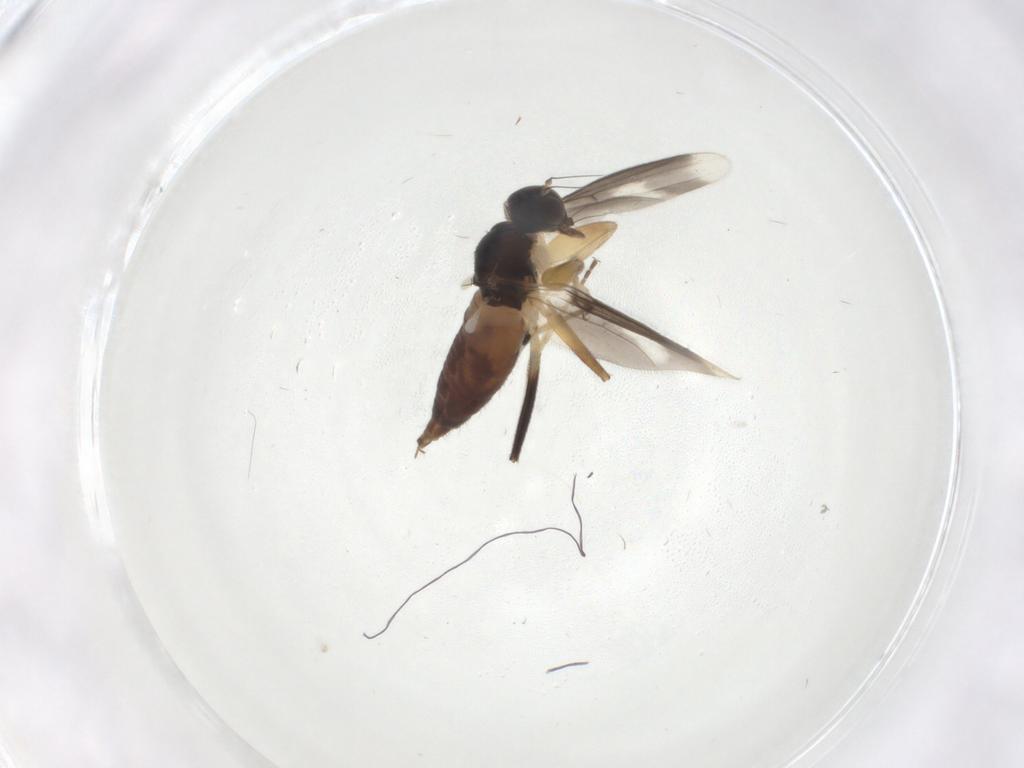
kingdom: Animalia
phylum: Arthropoda
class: Insecta
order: Diptera
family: Hybotidae
